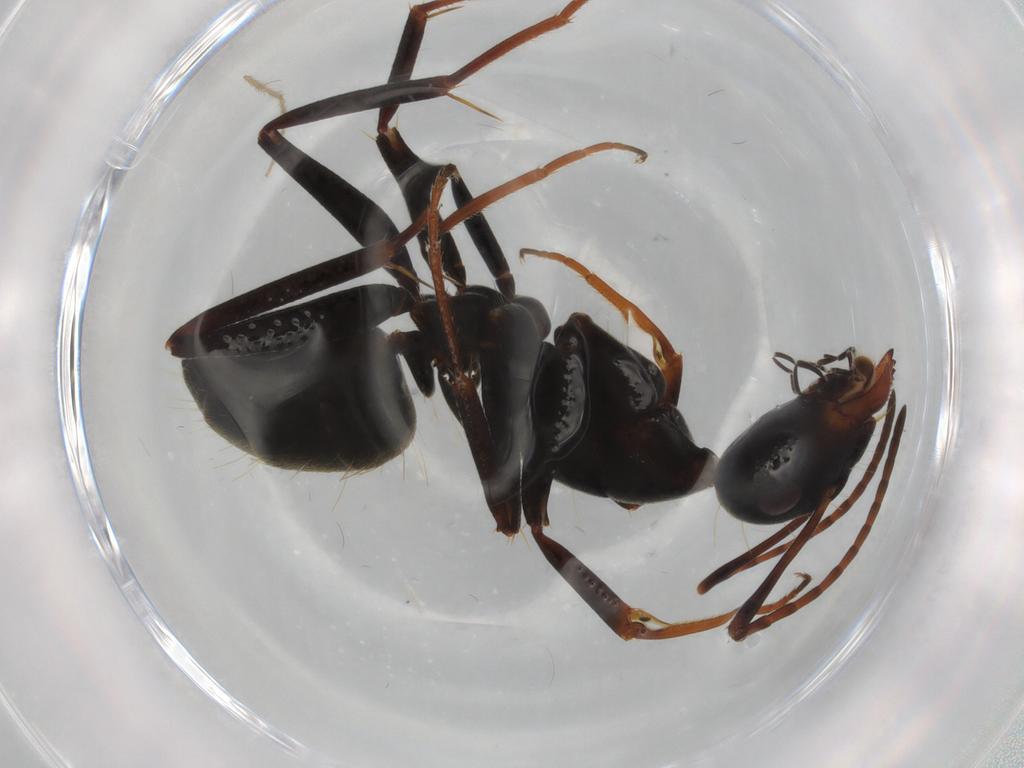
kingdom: Animalia
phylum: Arthropoda
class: Insecta
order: Hymenoptera
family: Formicidae
